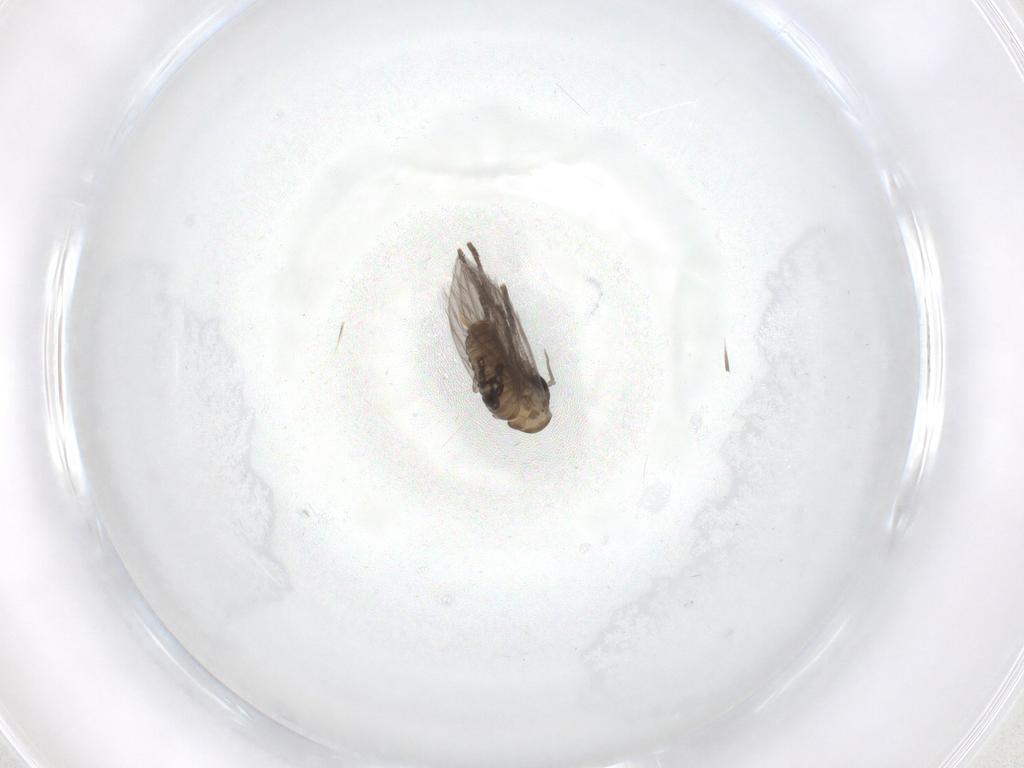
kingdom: Animalia
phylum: Arthropoda
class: Insecta
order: Diptera
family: Psychodidae
